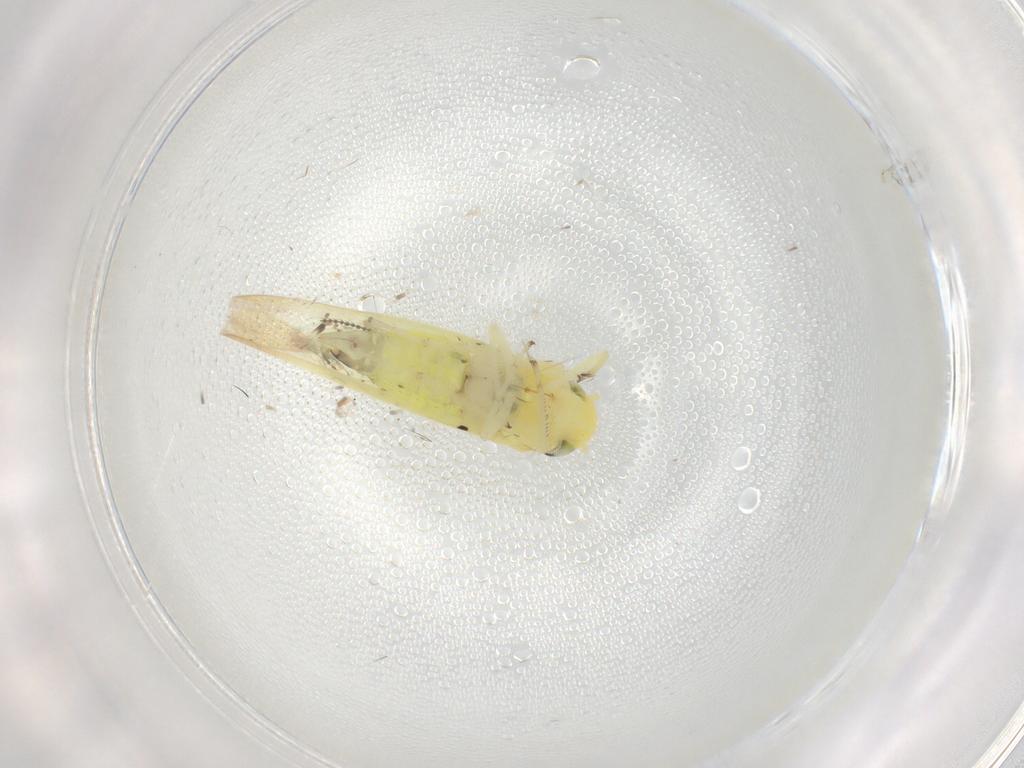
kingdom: Animalia
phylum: Arthropoda
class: Insecta
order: Hemiptera
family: Cicadellidae
